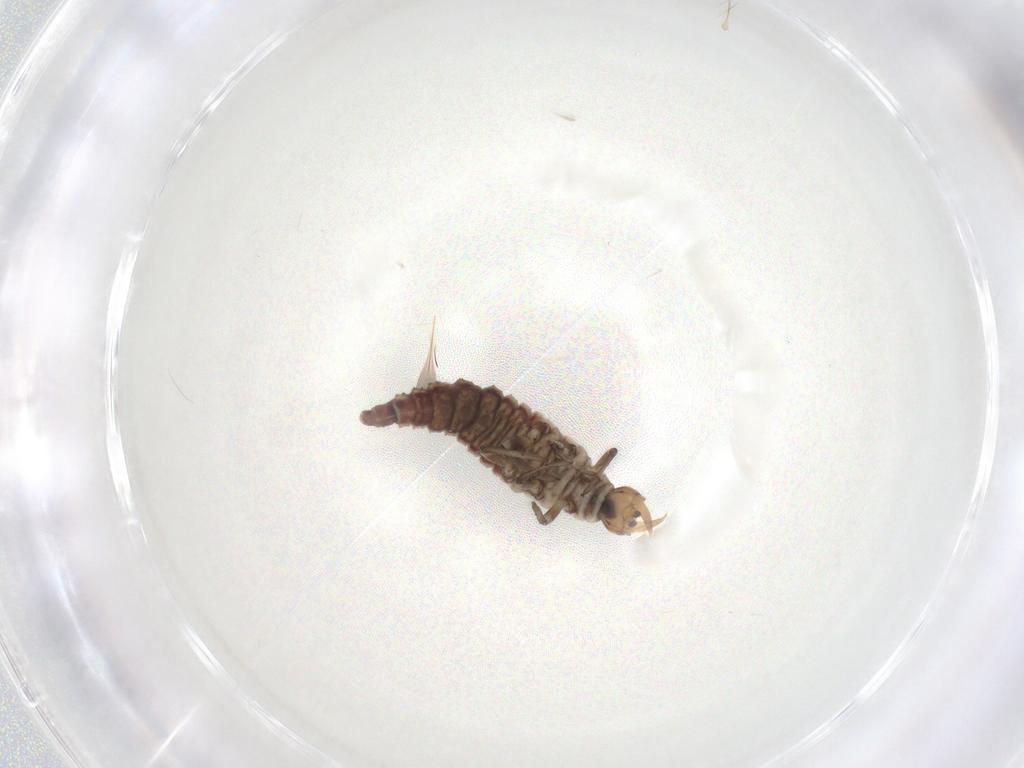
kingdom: Animalia
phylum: Arthropoda
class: Insecta
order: Neuroptera
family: Hemerobiidae
